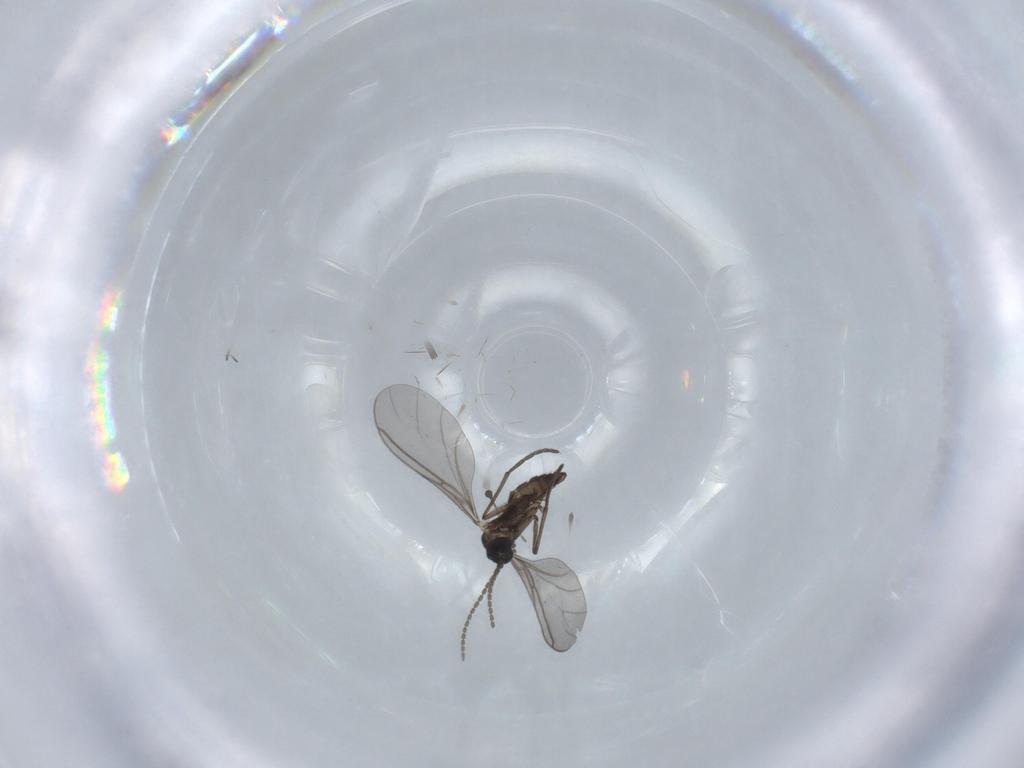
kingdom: Animalia
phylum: Arthropoda
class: Insecta
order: Diptera
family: Sciaridae
